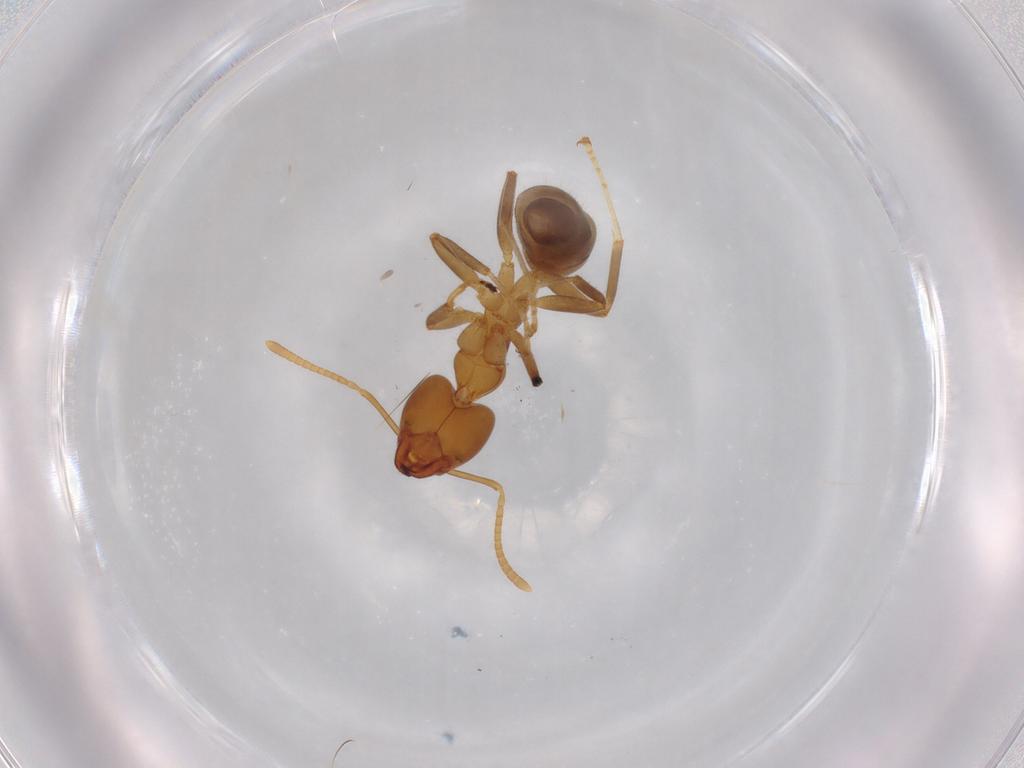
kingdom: Animalia
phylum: Arthropoda
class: Insecta
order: Hymenoptera
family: Formicidae
